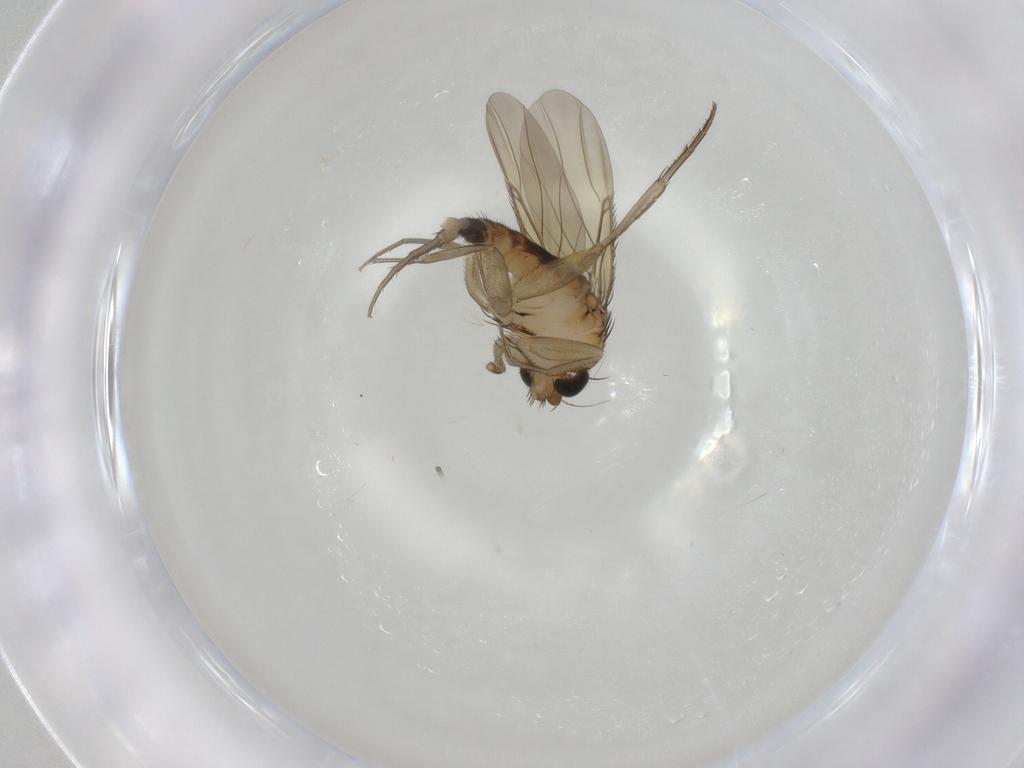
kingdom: Animalia
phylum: Arthropoda
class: Insecta
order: Diptera
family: Phoridae
